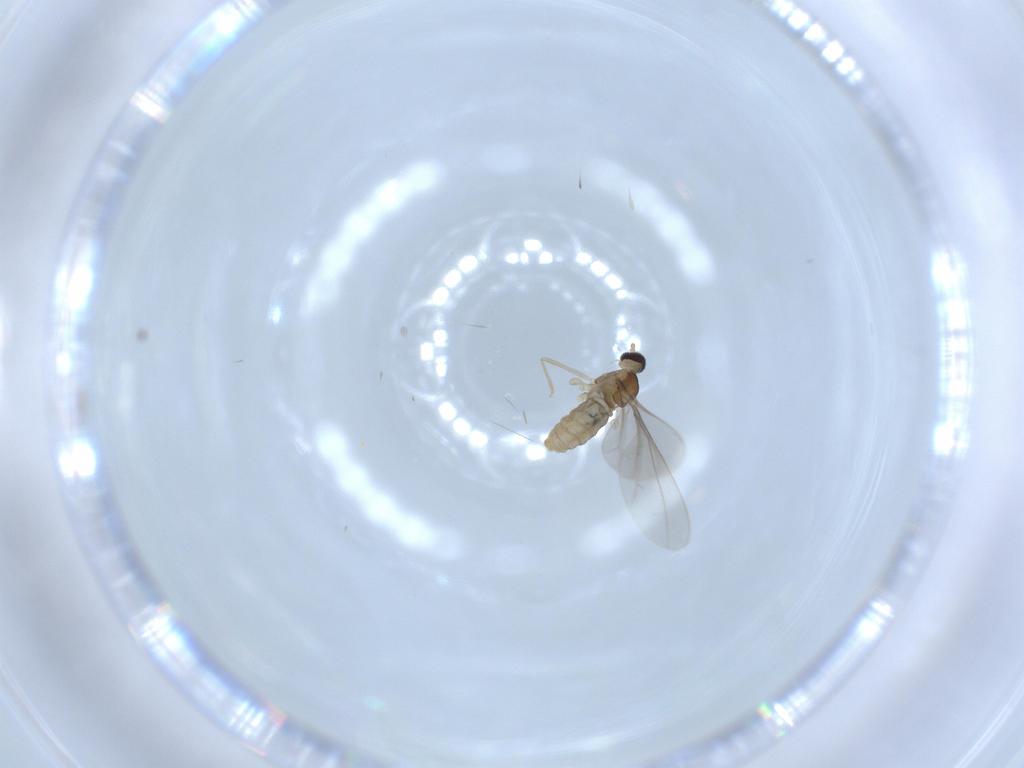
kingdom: Animalia
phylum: Arthropoda
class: Insecta
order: Diptera
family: Cecidomyiidae
